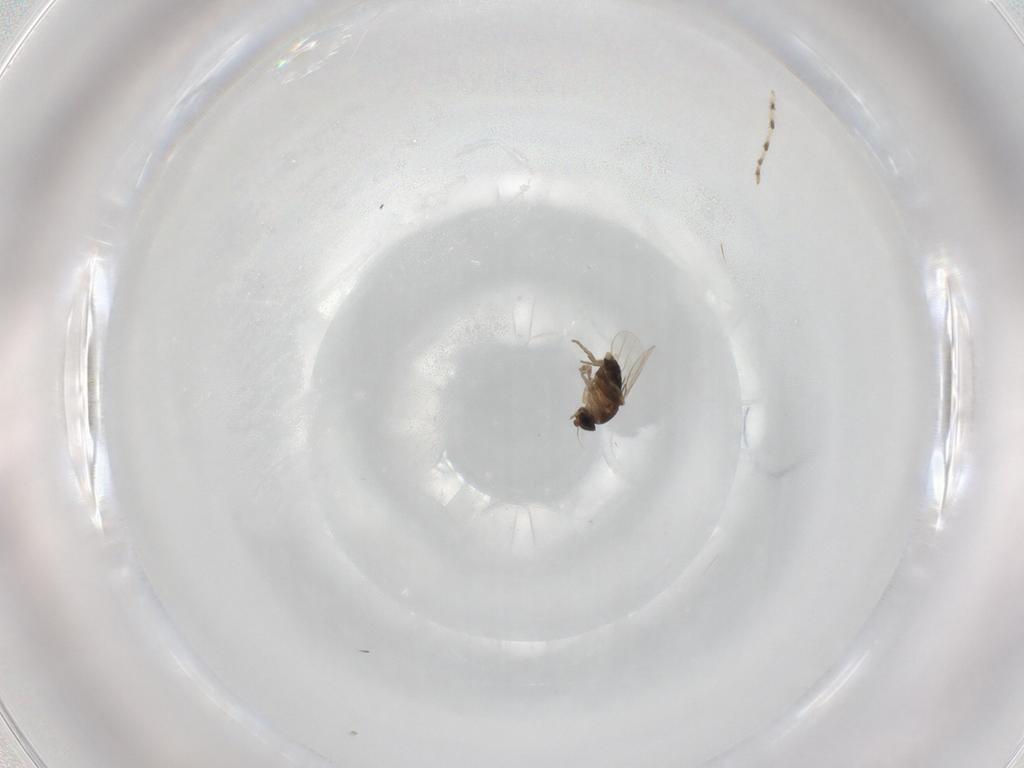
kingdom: Animalia
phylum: Arthropoda
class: Insecta
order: Diptera
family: Chironomidae
